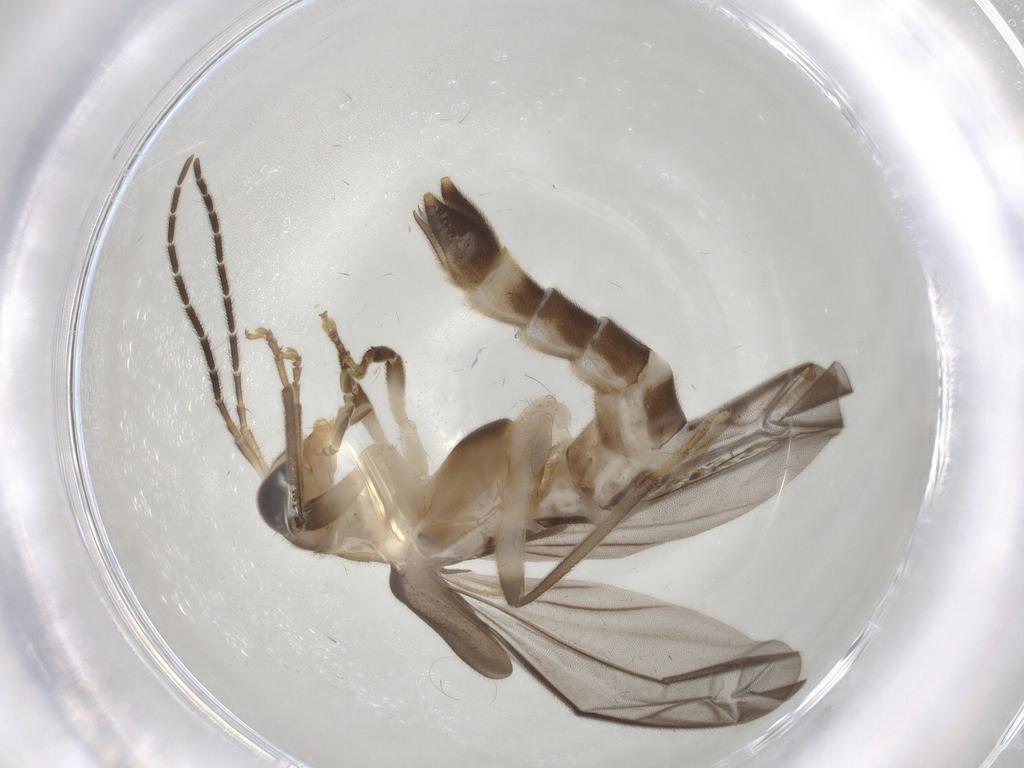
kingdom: Animalia
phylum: Arthropoda
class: Insecta
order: Coleoptera
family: Cantharidae
